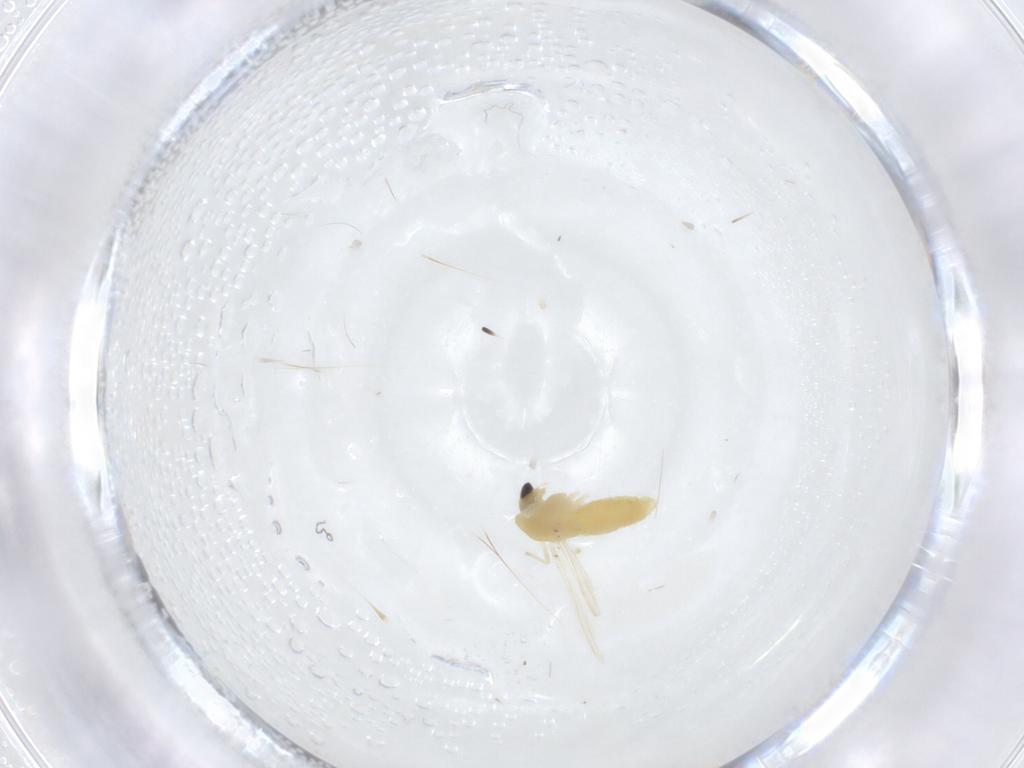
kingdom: Animalia
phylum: Arthropoda
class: Insecta
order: Diptera
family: Chironomidae
